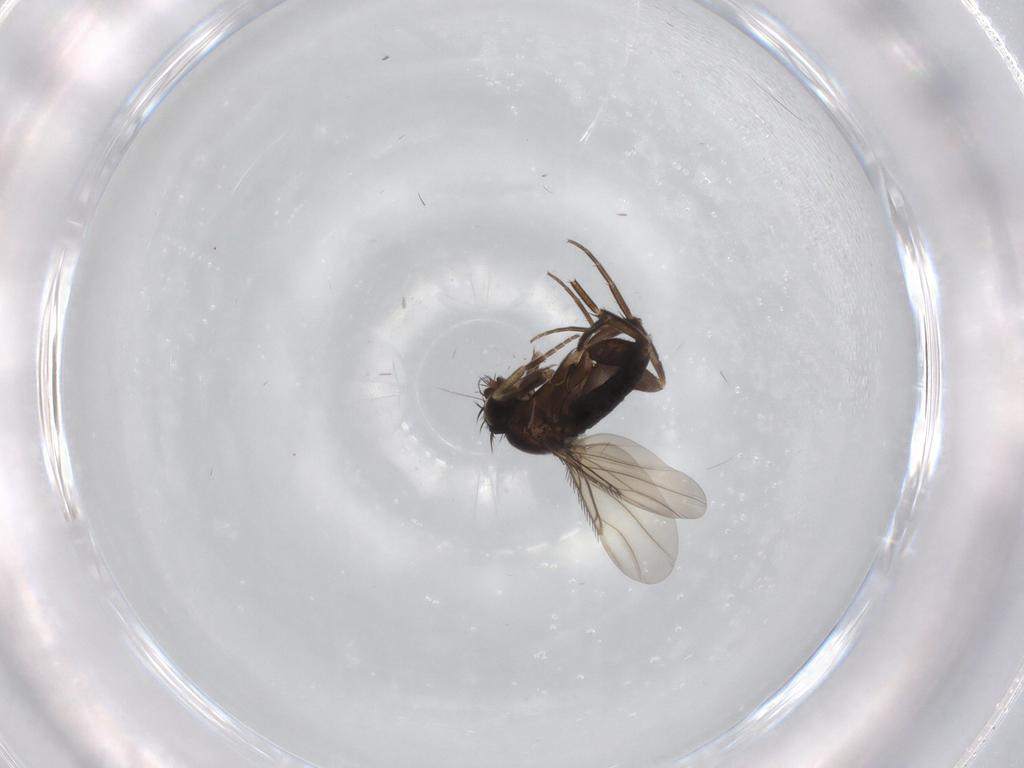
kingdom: Animalia
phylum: Arthropoda
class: Insecta
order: Diptera
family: Phoridae
